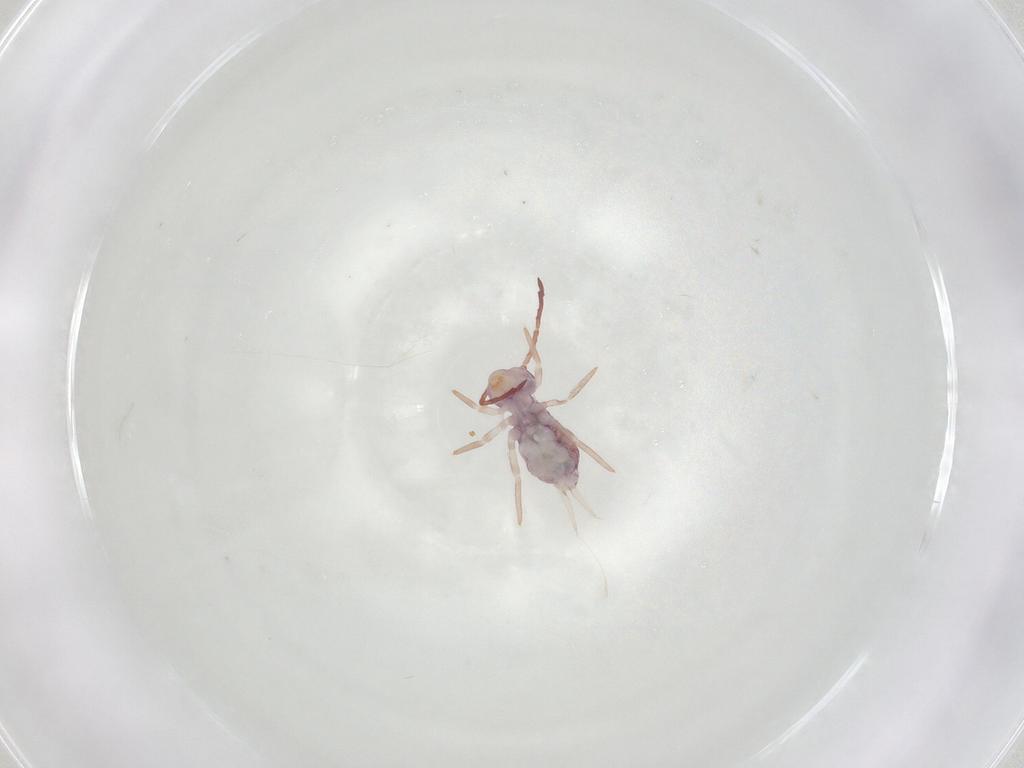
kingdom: Animalia
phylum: Arthropoda
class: Collembola
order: Symphypleona
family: Dicyrtomidae
